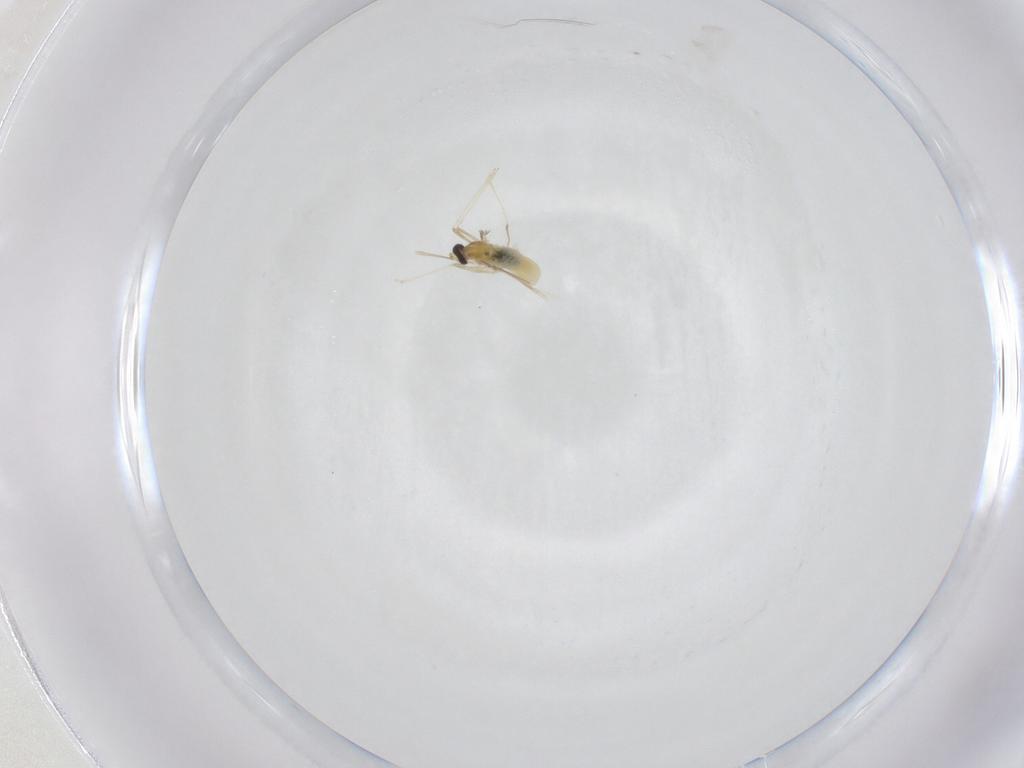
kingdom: Animalia
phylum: Arthropoda
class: Insecta
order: Diptera
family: Cecidomyiidae
